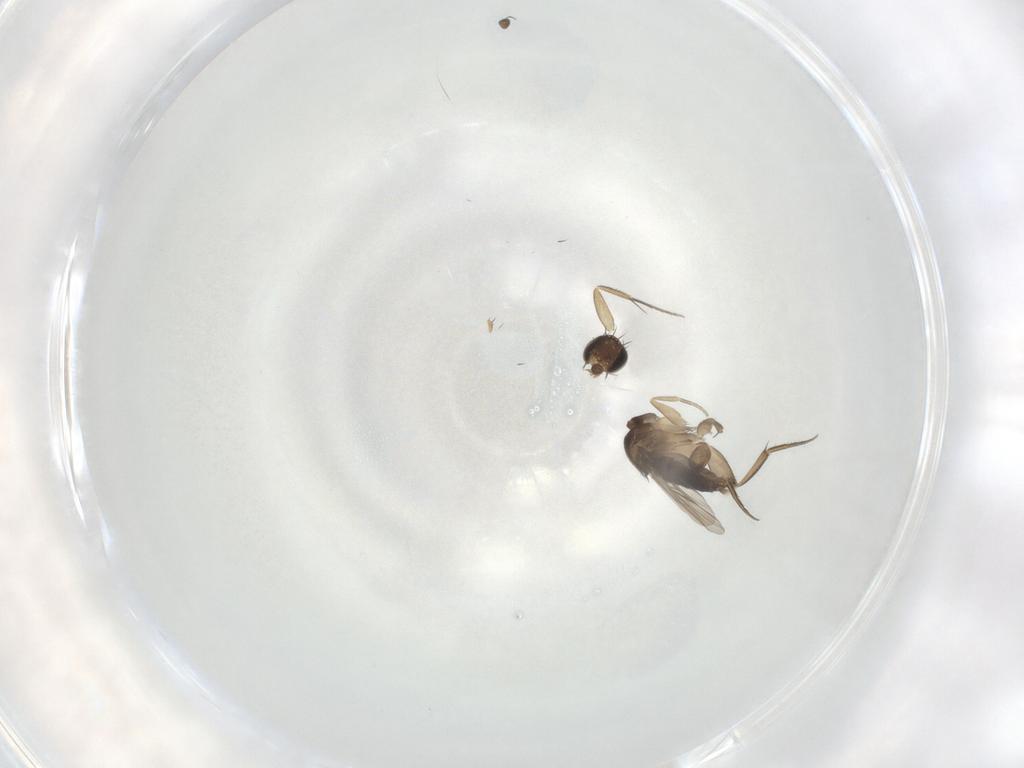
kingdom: Animalia
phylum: Arthropoda
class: Insecta
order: Diptera
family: Phoridae
